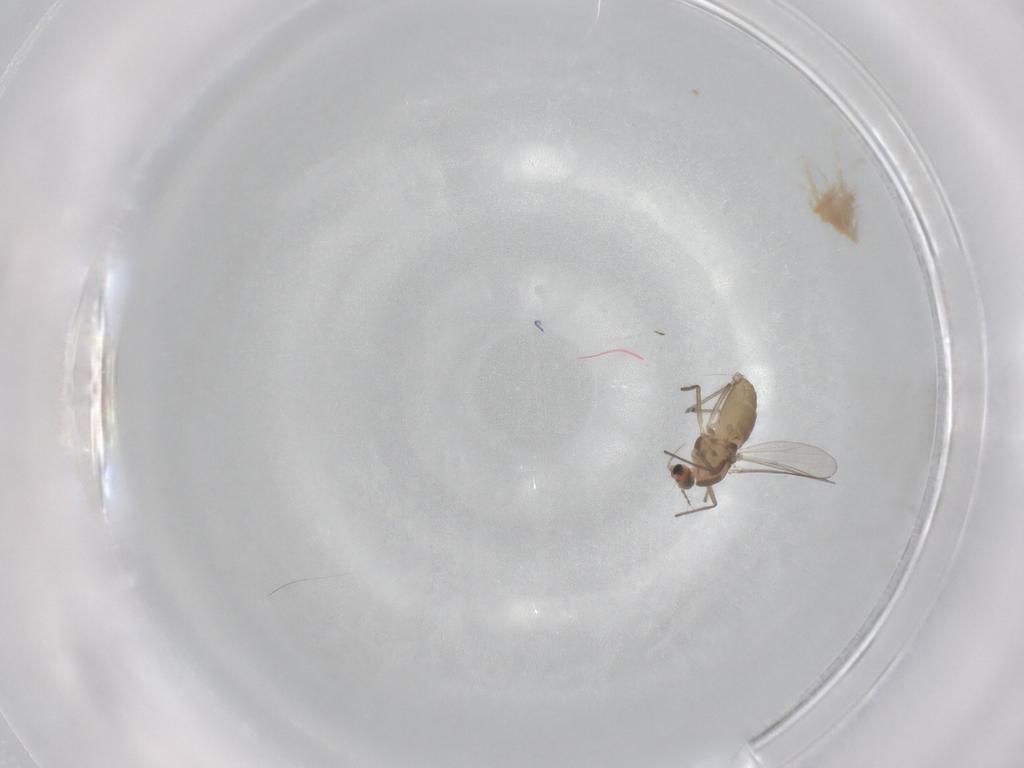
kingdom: Animalia
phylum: Arthropoda
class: Insecta
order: Diptera
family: Chironomidae
